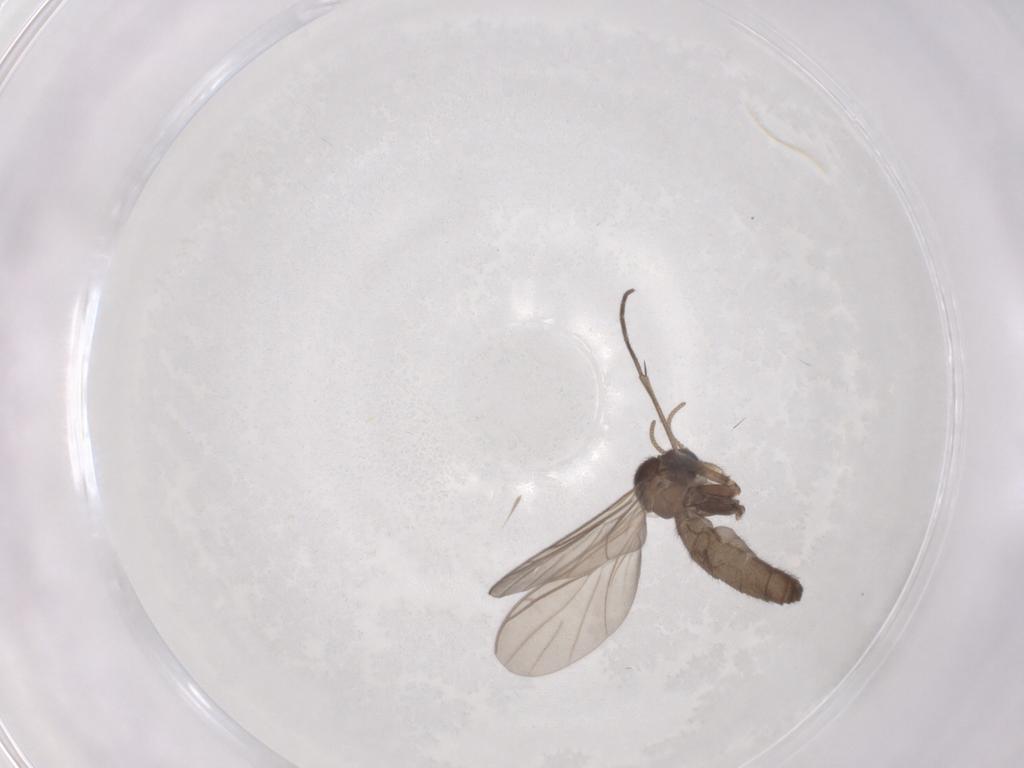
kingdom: Animalia
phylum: Arthropoda
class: Insecta
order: Diptera
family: Keroplatidae
